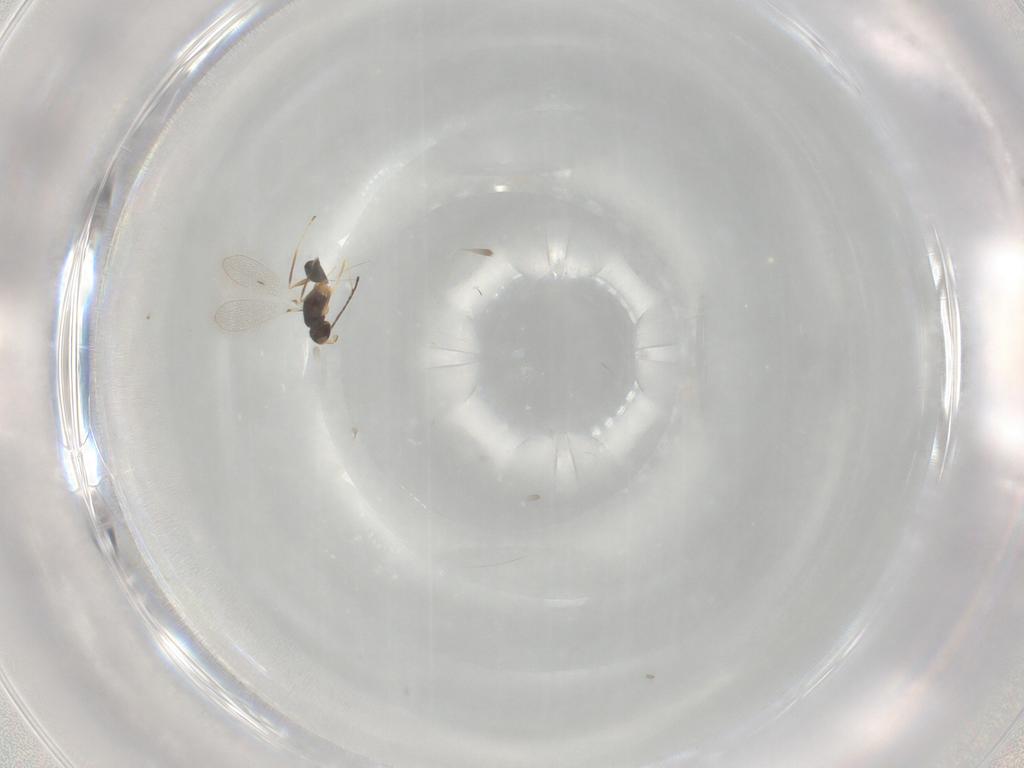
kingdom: Animalia
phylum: Arthropoda
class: Insecta
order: Hymenoptera
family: Mymaridae
